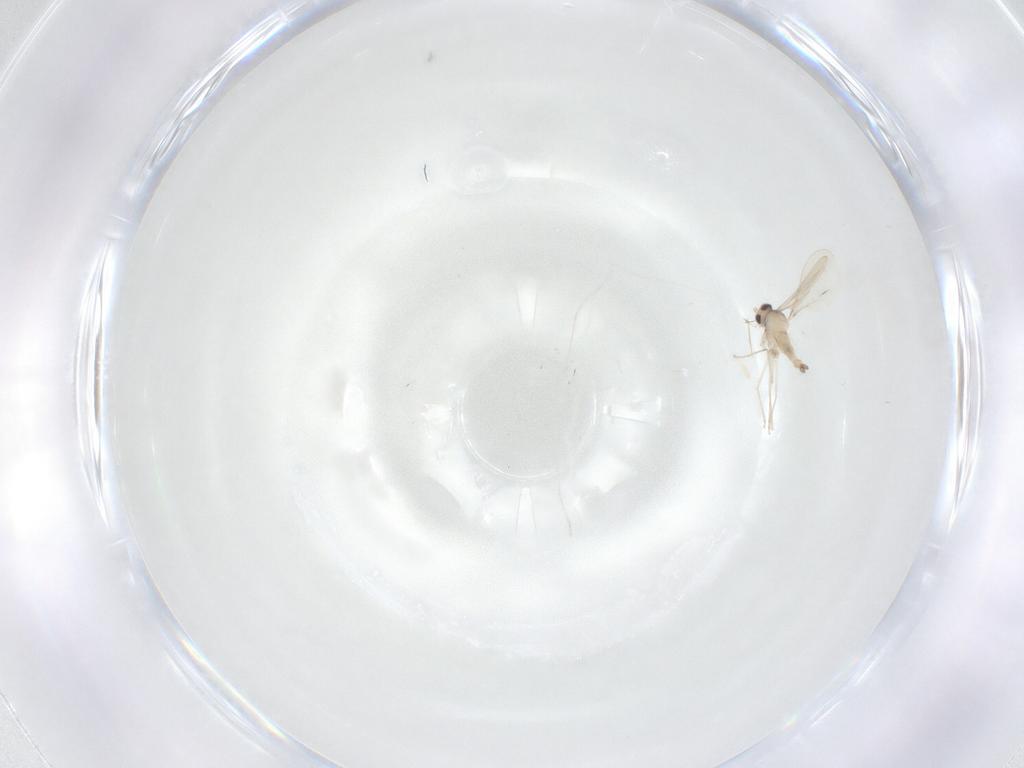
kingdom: Animalia
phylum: Arthropoda
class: Insecta
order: Diptera
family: Cecidomyiidae
